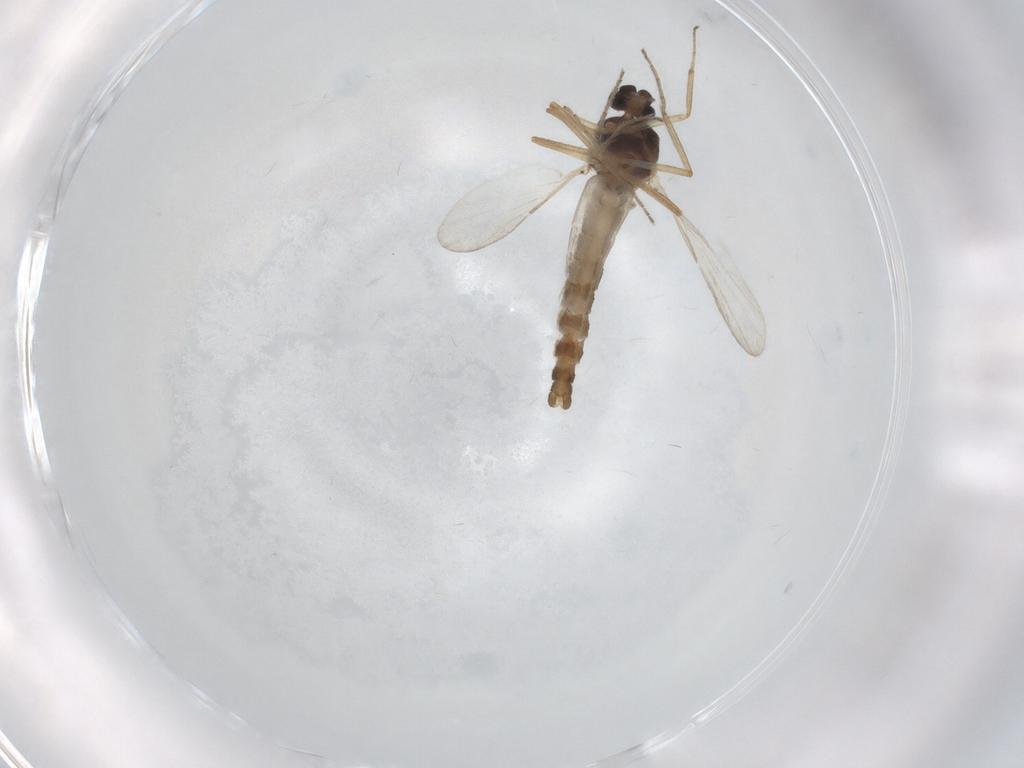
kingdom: Animalia
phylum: Arthropoda
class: Insecta
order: Diptera
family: Ceratopogonidae
